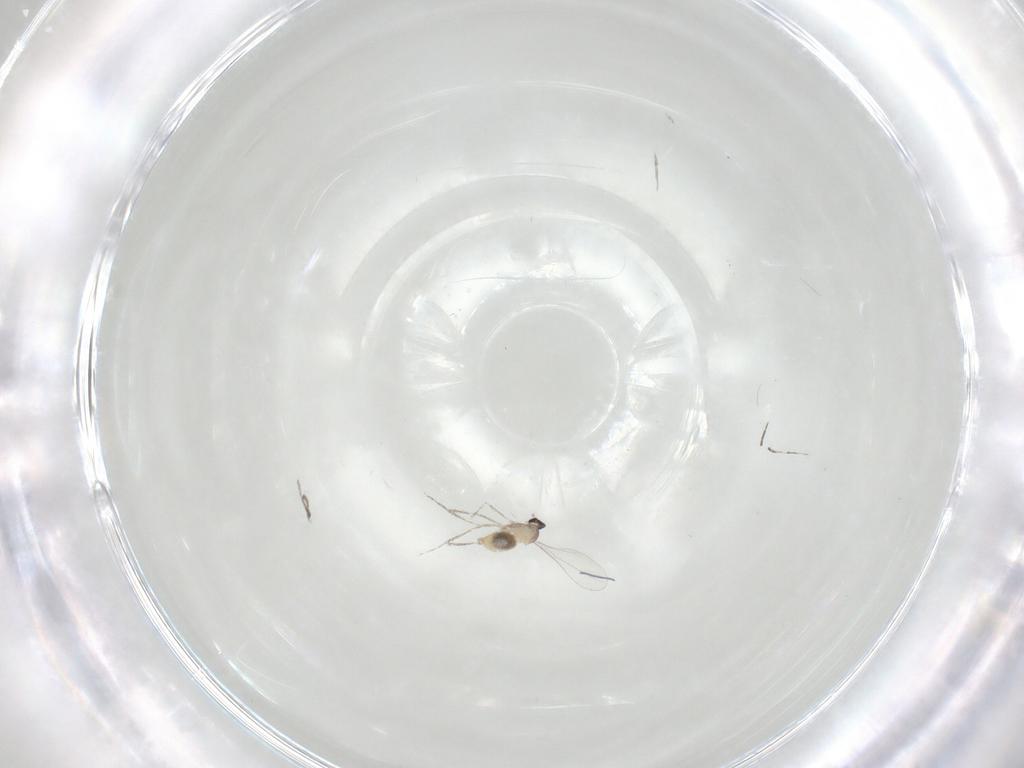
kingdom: Animalia
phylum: Arthropoda
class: Insecta
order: Diptera
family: Cecidomyiidae
